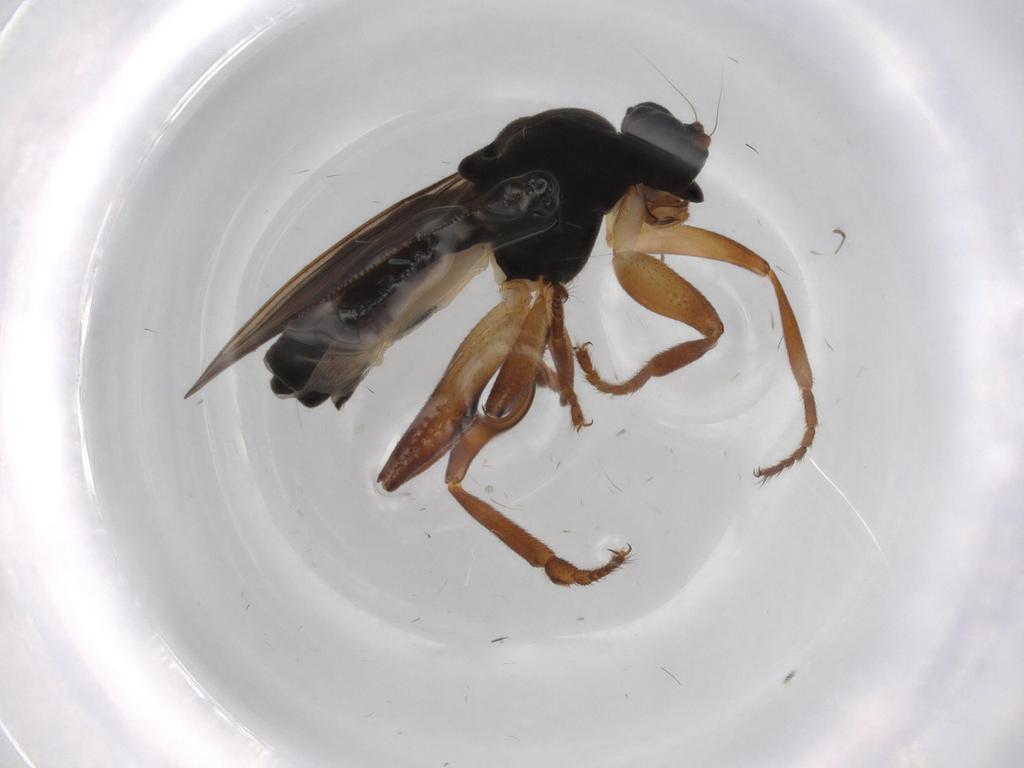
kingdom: Animalia
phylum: Arthropoda
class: Insecta
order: Diptera
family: Sphaeroceridae
